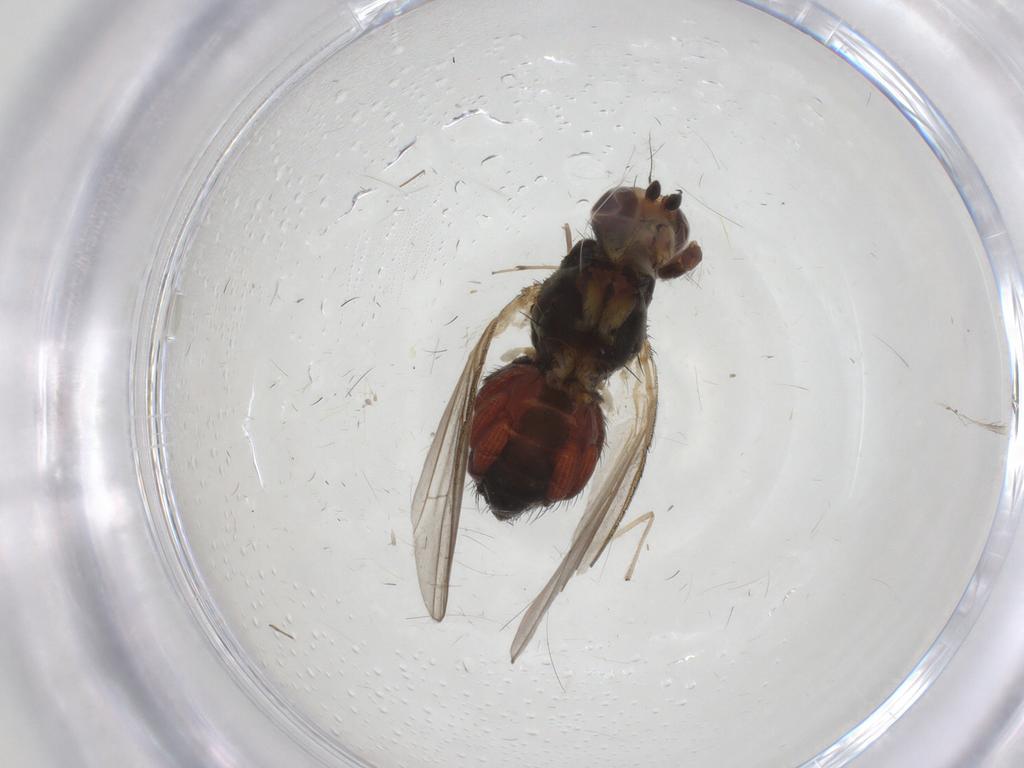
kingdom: Animalia
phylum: Arthropoda
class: Insecta
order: Diptera
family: Heleomyzidae
